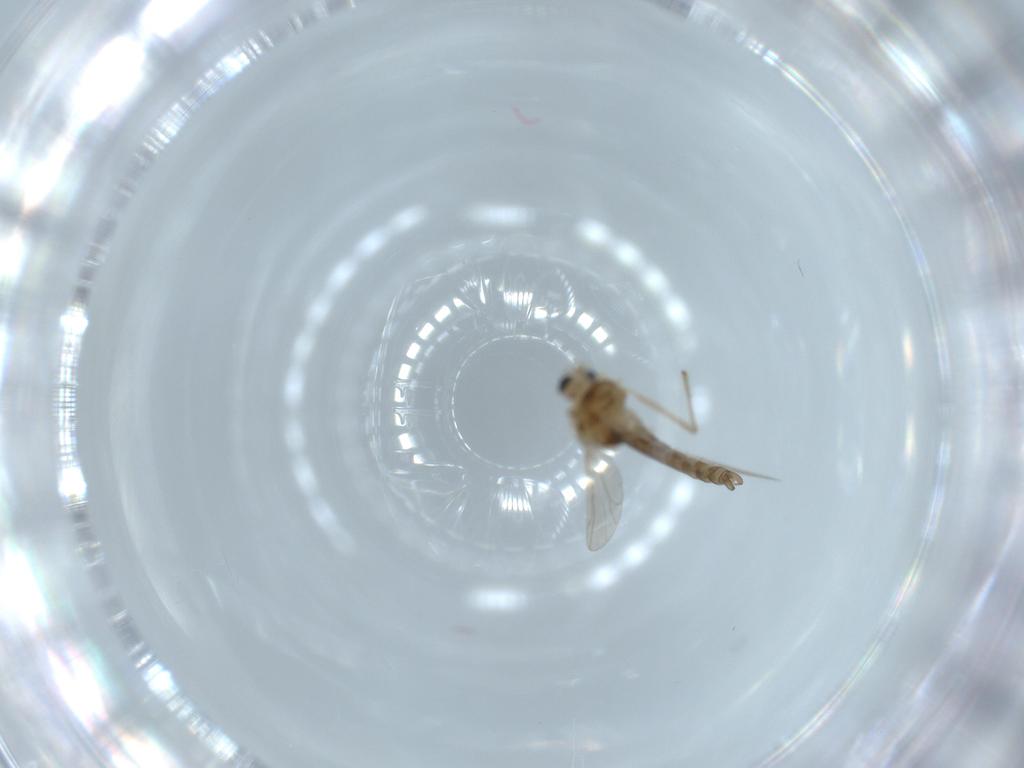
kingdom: Animalia
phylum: Arthropoda
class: Insecta
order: Diptera
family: Chironomidae
